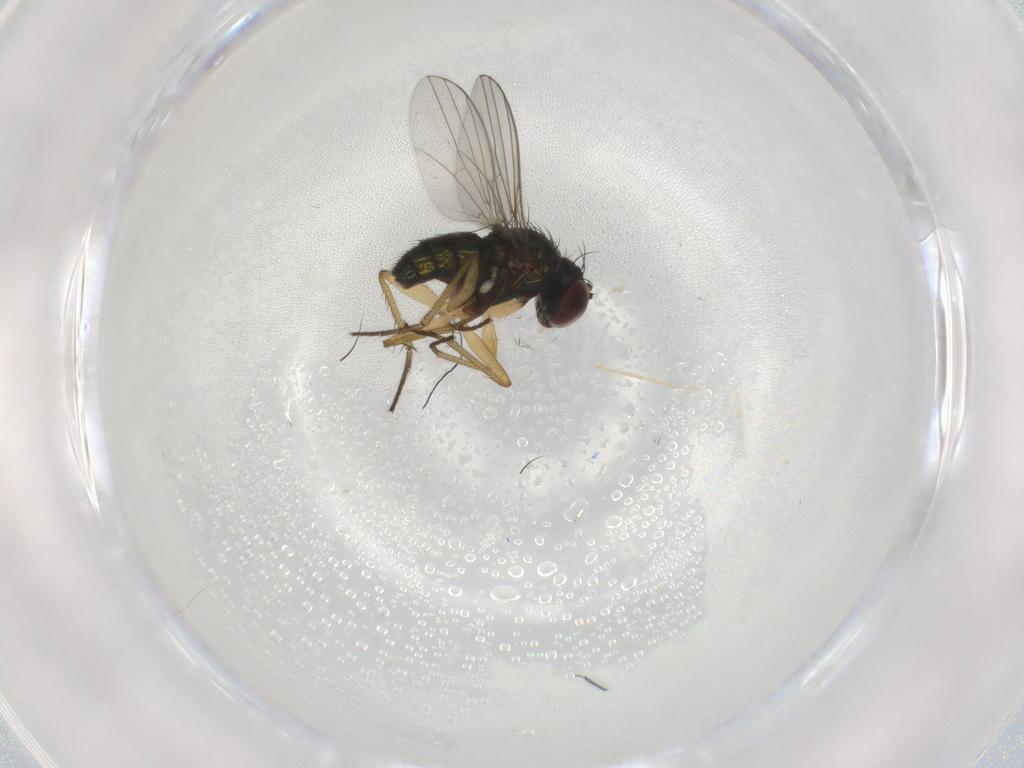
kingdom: Animalia
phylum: Arthropoda
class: Insecta
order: Diptera
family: Dolichopodidae
